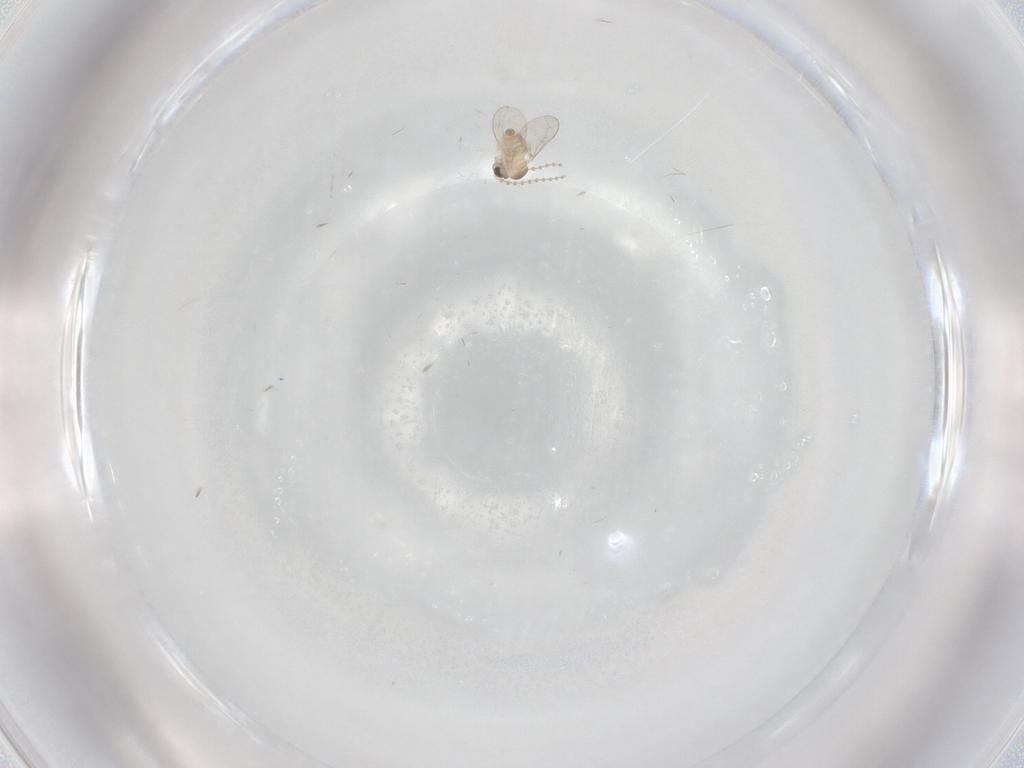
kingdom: Animalia
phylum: Arthropoda
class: Insecta
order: Diptera
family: Cecidomyiidae
